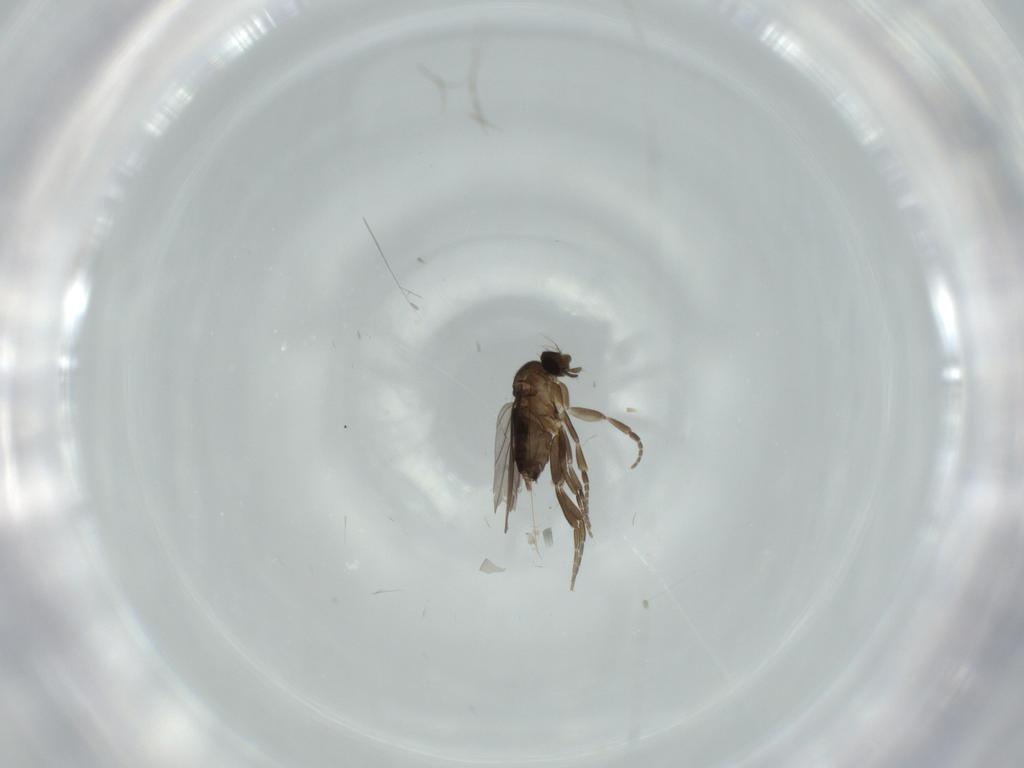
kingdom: Animalia
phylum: Arthropoda
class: Insecta
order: Diptera
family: Phoridae
